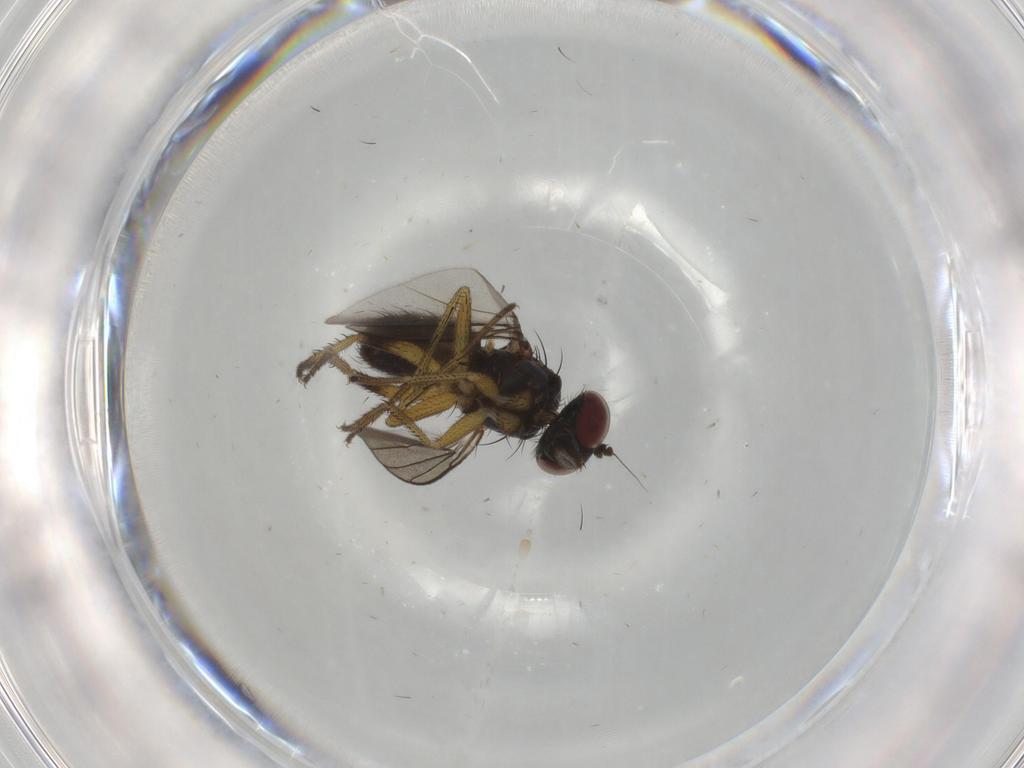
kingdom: Animalia
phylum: Arthropoda
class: Insecta
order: Diptera
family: Dolichopodidae
